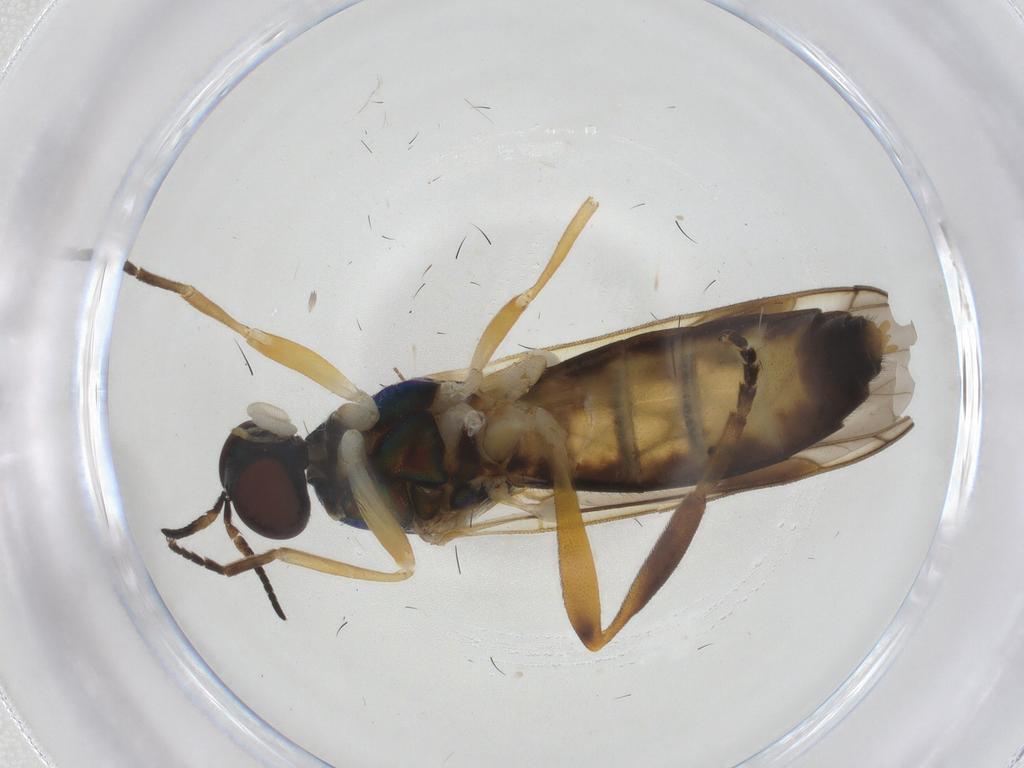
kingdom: Animalia
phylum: Arthropoda
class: Insecta
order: Diptera
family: Stratiomyidae
